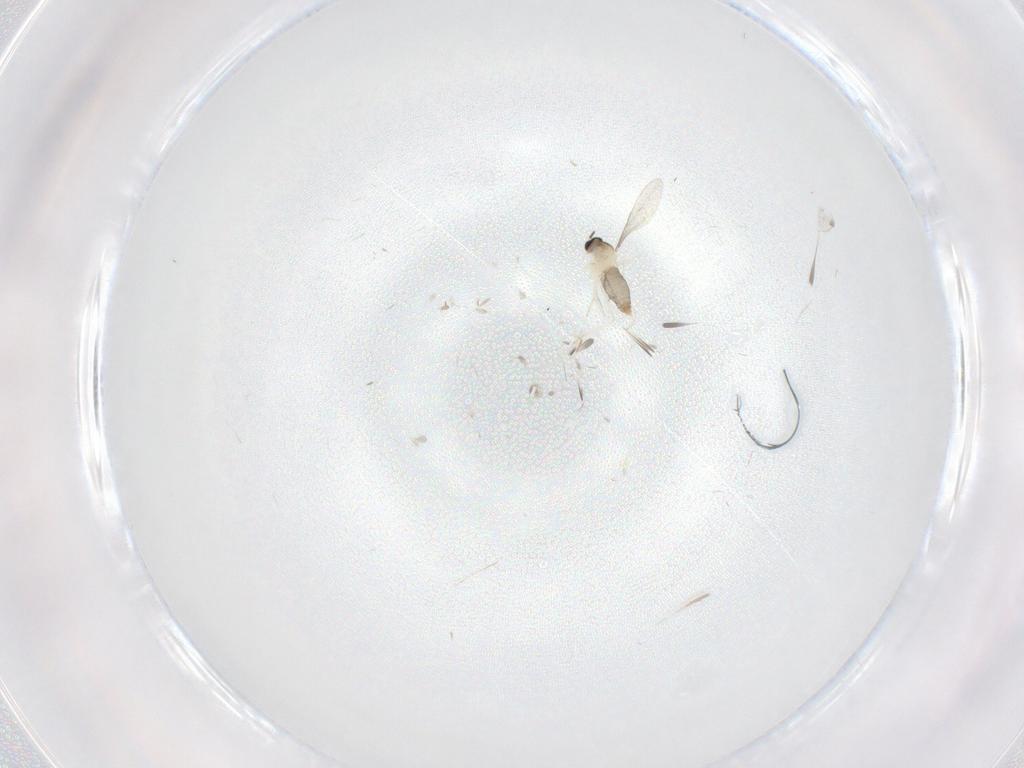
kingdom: Animalia
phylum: Arthropoda
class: Insecta
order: Diptera
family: Cecidomyiidae
